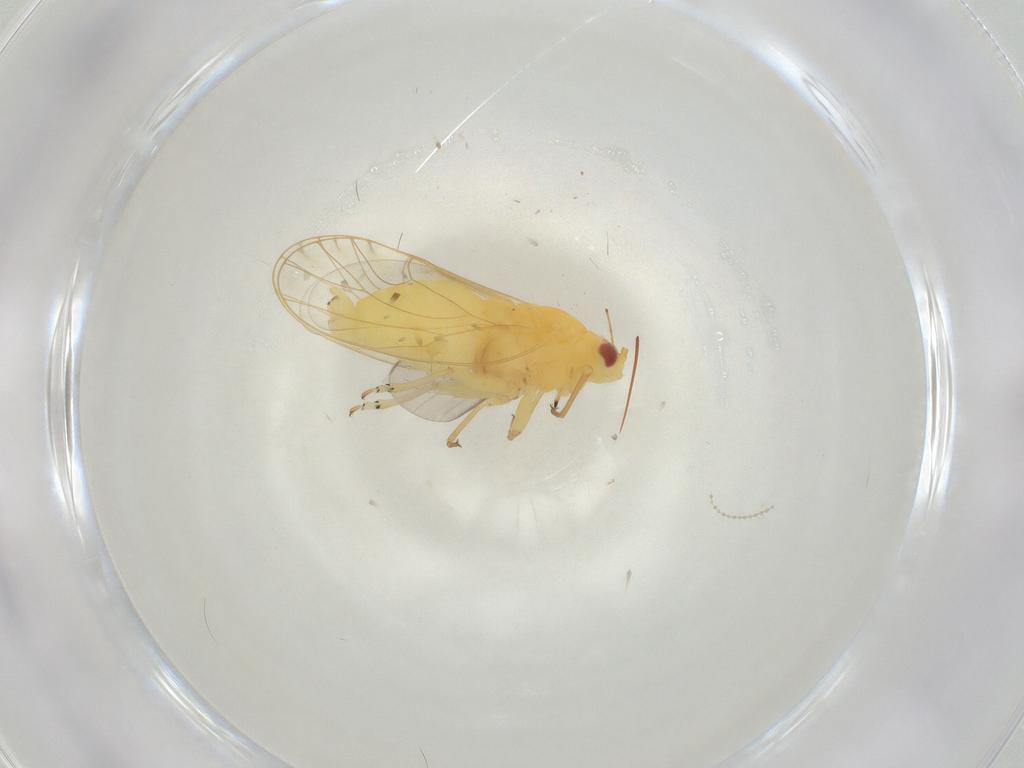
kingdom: Animalia
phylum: Arthropoda
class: Insecta
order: Hemiptera
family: Psyllidae
